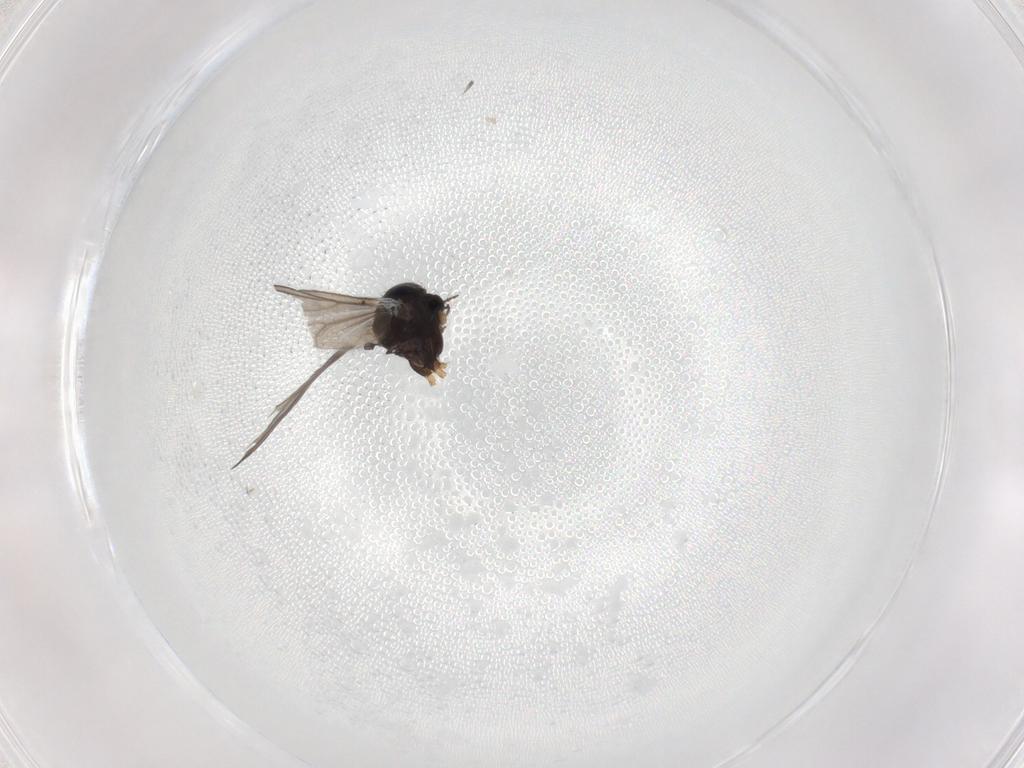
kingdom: Animalia
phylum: Arthropoda
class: Insecta
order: Diptera
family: Chironomidae
